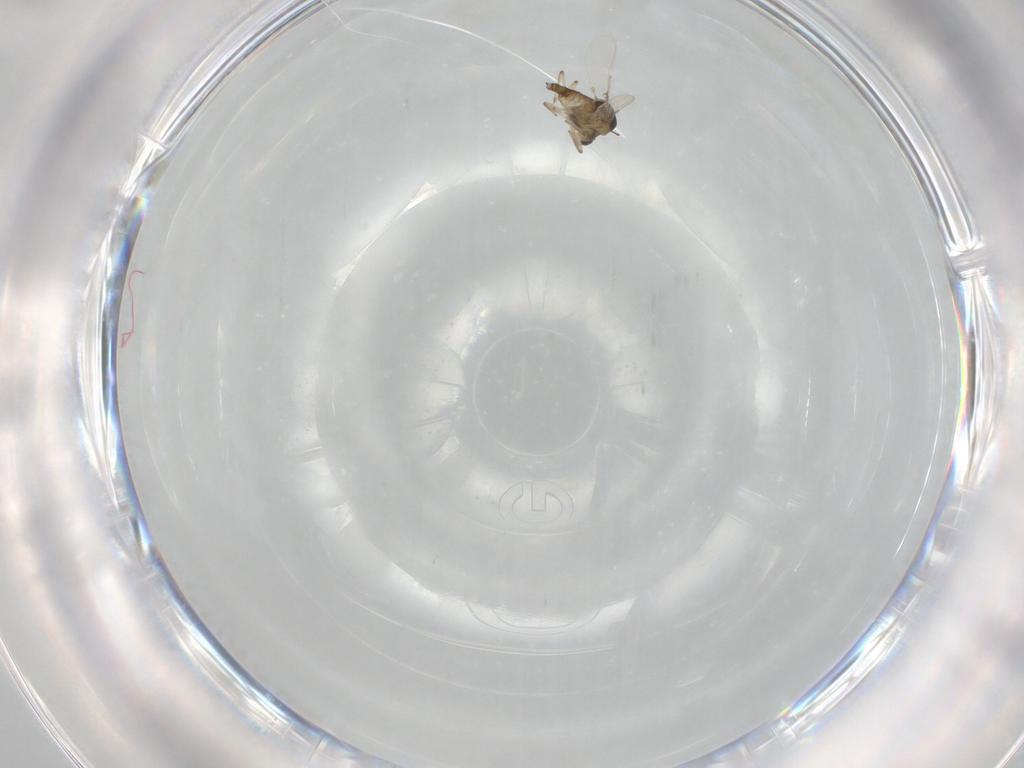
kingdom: Animalia
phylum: Arthropoda
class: Insecta
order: Diptera
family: Chironomidae
